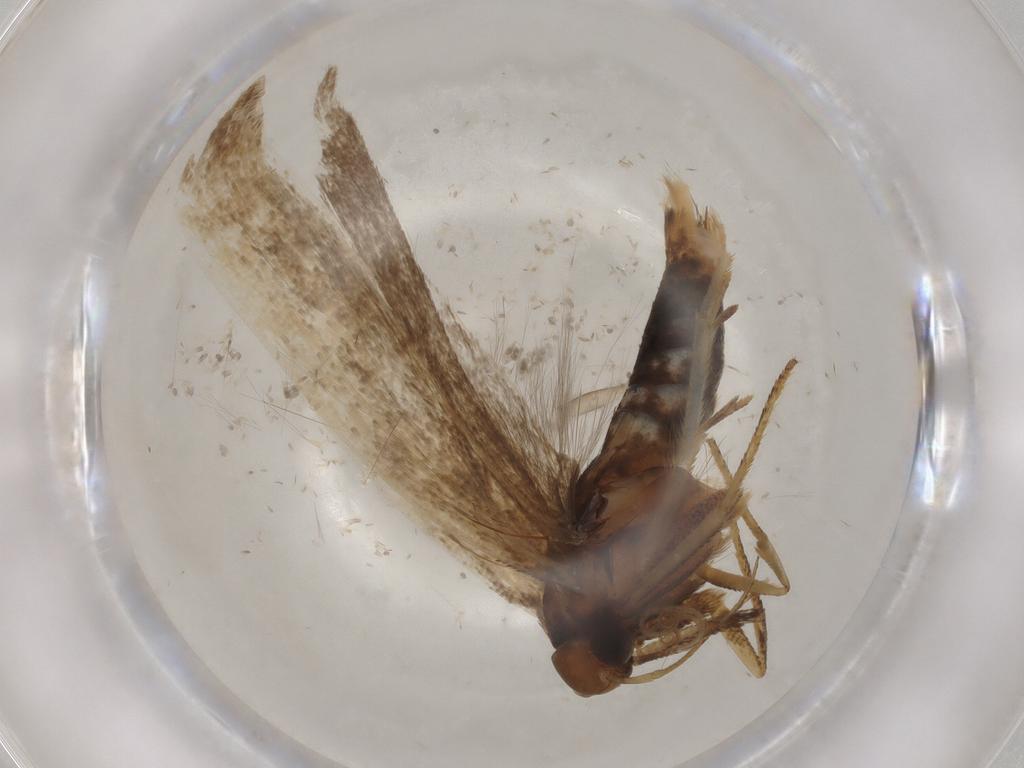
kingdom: Animalia
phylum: Arthropoda
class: Insecta
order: Lepidoptera
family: Gelechiidae
